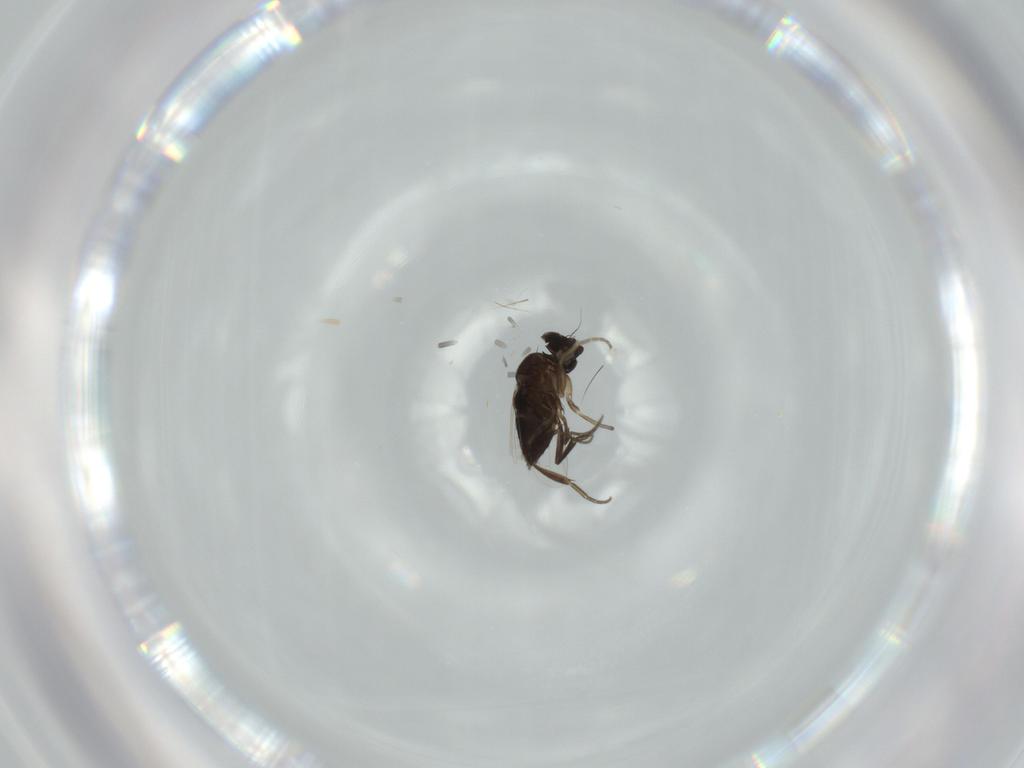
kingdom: Animalia
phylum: Arthropoda
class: Insecta
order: Diptera
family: Phoridae
